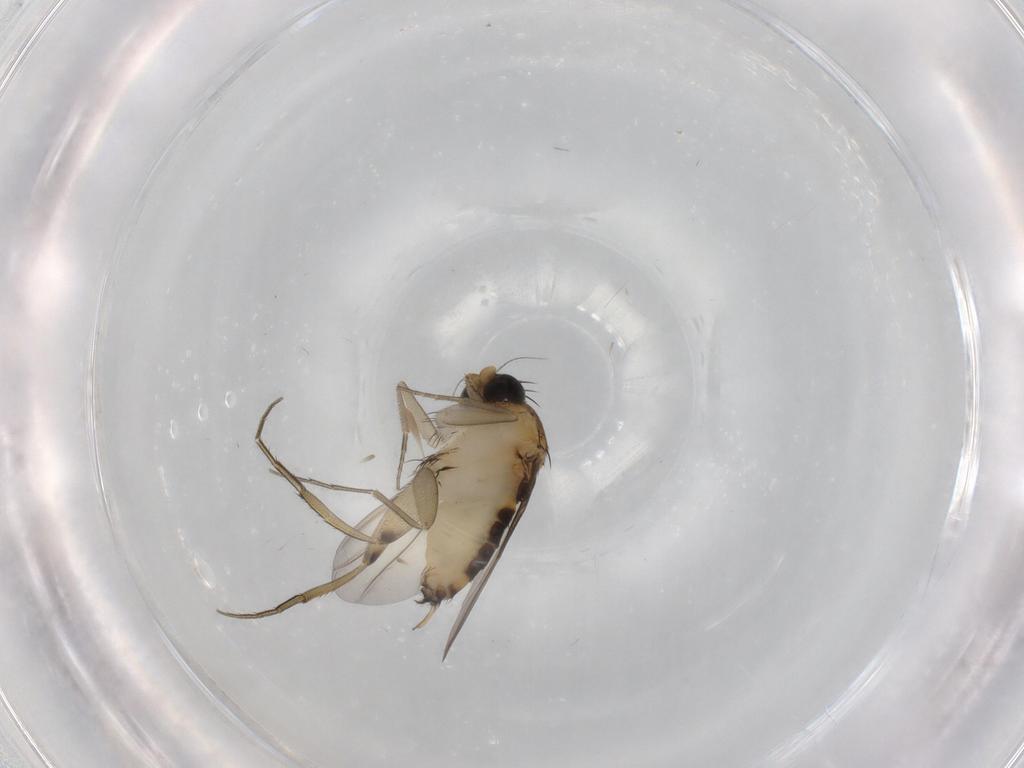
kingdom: Animalia
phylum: Arthropoda
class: Insecta
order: Diptera
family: Phoridae
